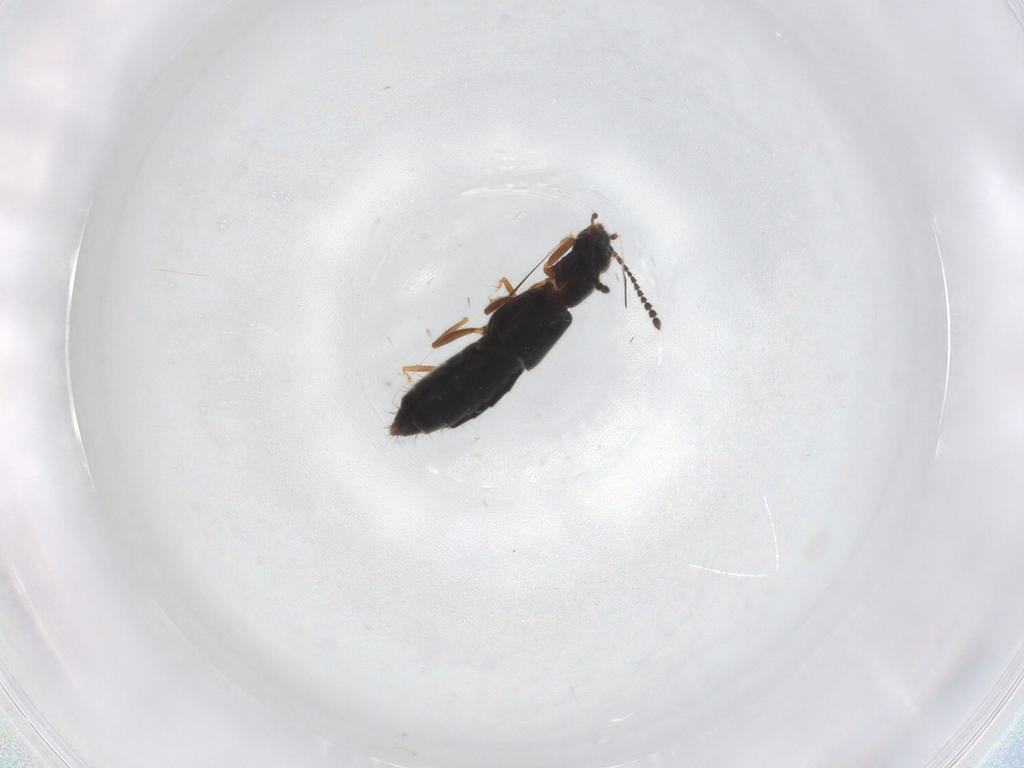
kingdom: Animalia
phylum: Arthropoda
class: Insecta
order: Coleoptera
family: Staphylinidae
